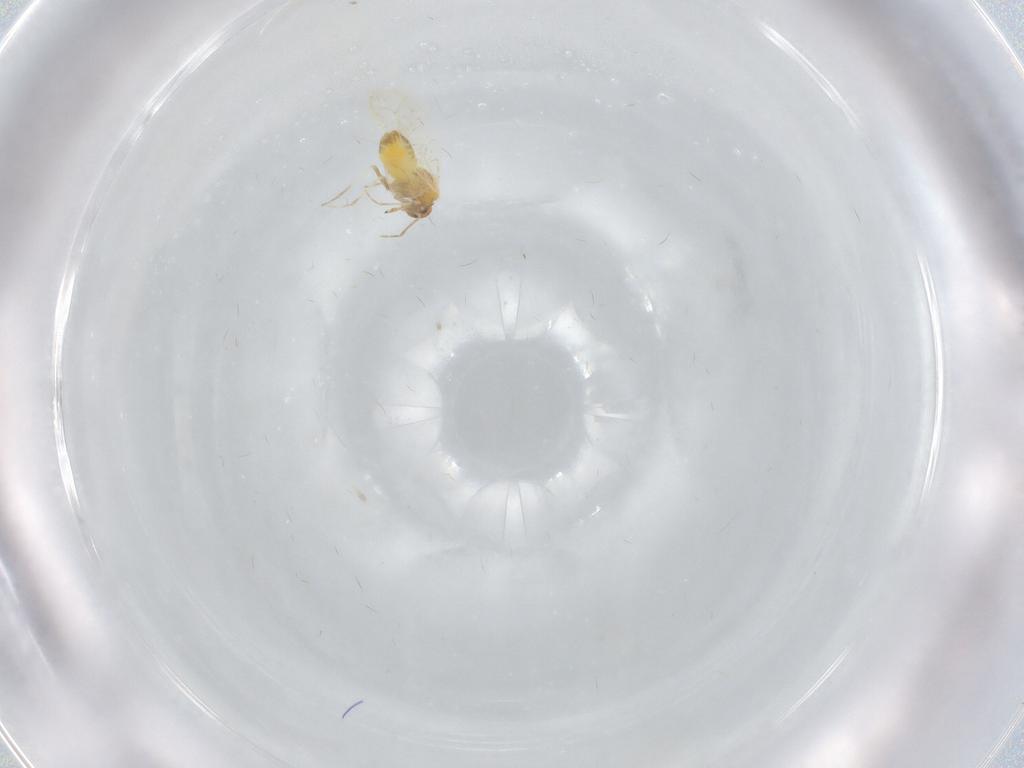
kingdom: Animalia
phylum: Arthropoda
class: Insecta
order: Hemiptera
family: Aleyrodidae
